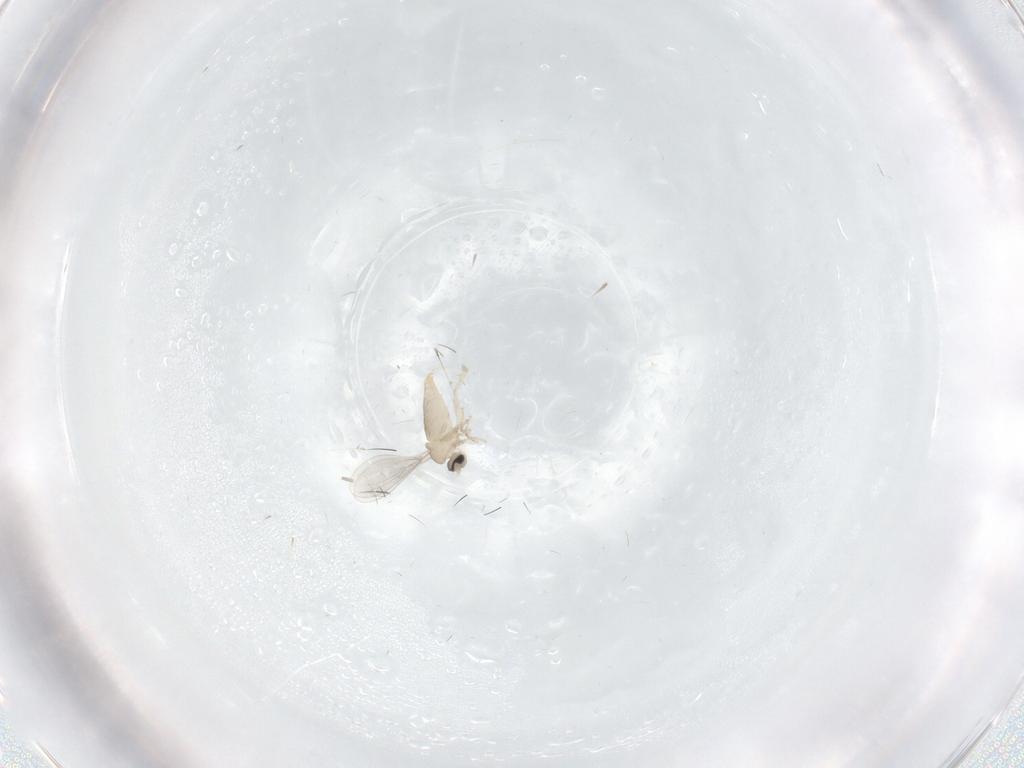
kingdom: Animalia
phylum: Arthropoda
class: Insecta
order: Diptera
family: Cecidomyiidae
